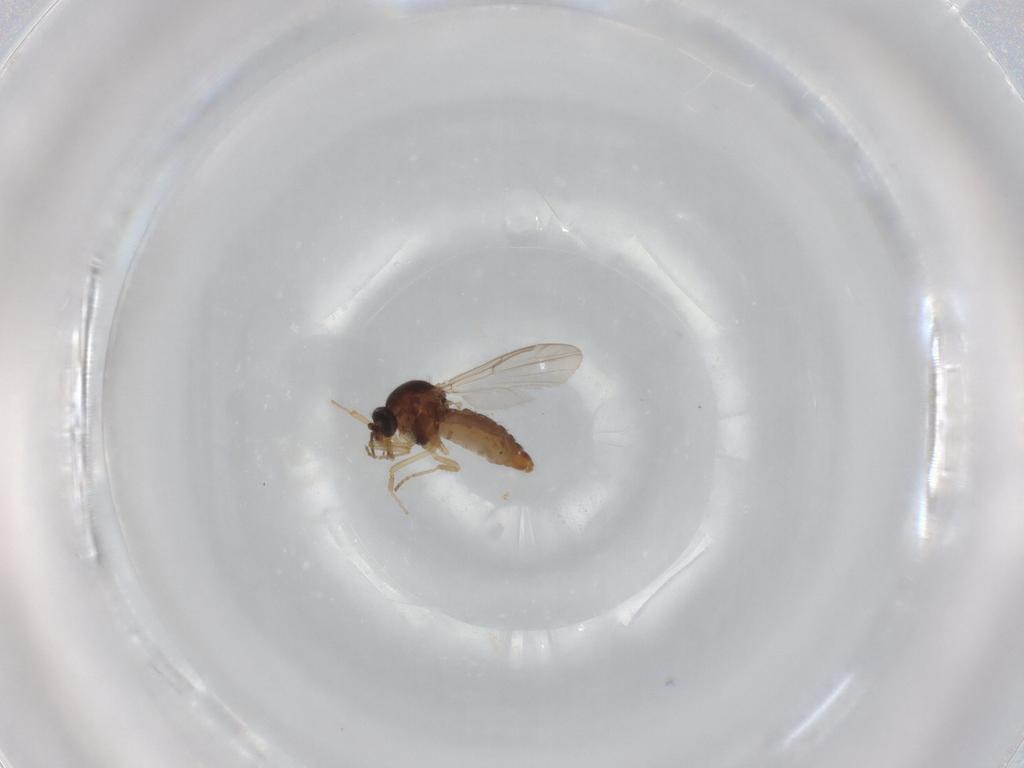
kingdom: Animalia
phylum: Arthropoda
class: Insecta
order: Diptera
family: Ceratopogonidae
